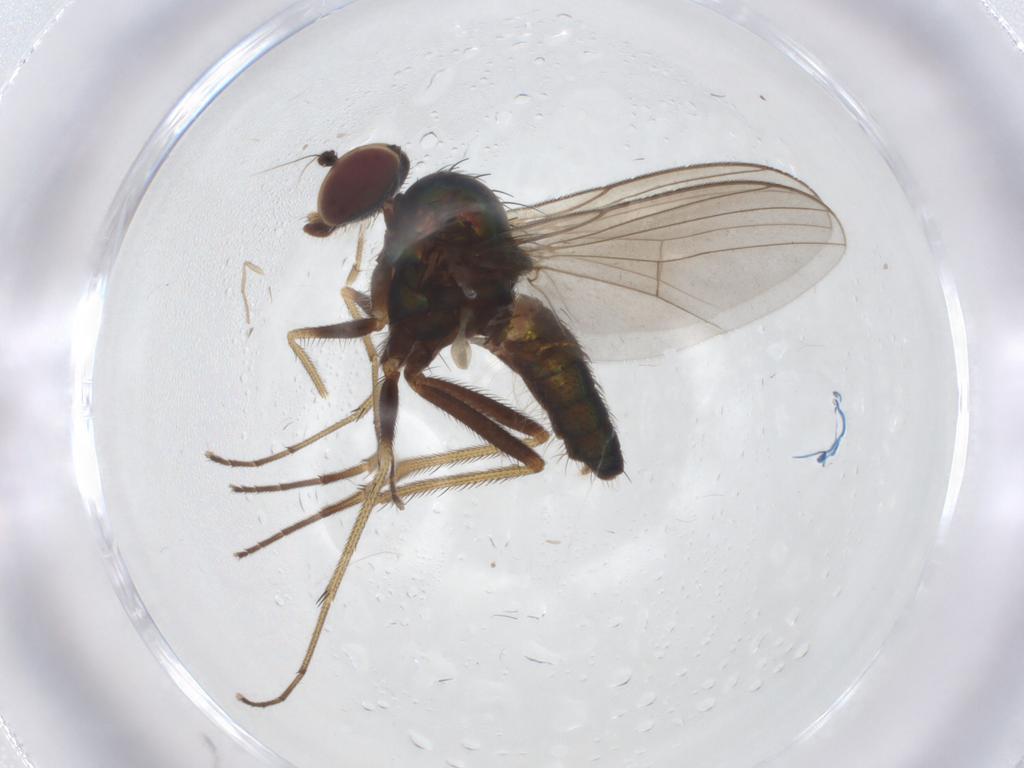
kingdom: Animalia
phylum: Arthropoda
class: Insecta
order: Diptera
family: Dolichopodidae
